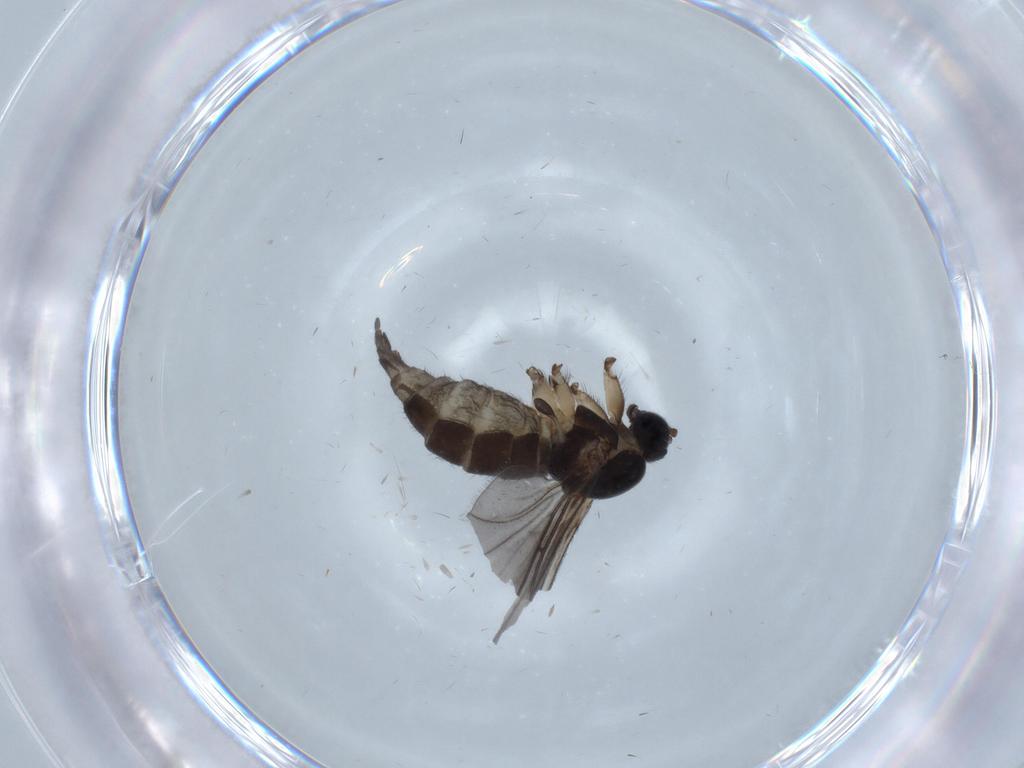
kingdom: Animalia
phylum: Arthropoda
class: Insecta
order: Diptera
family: Sciaridae
